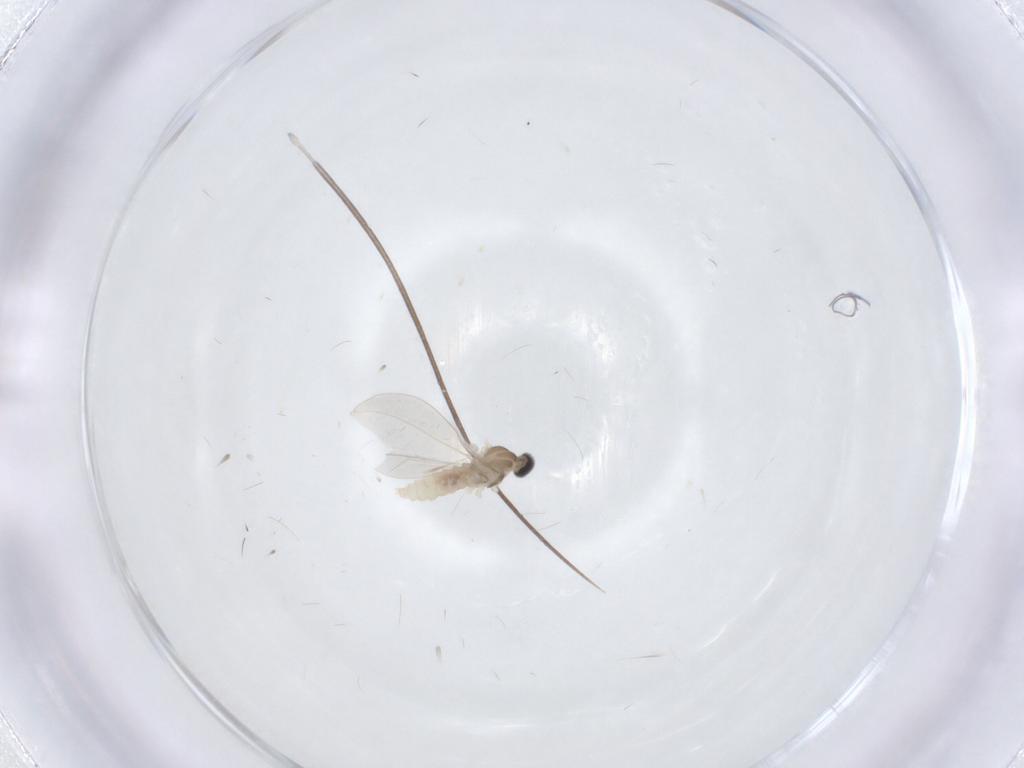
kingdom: Animalia
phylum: Arthropoda
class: Insecta
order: Diptera
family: Cecidomyiidae
